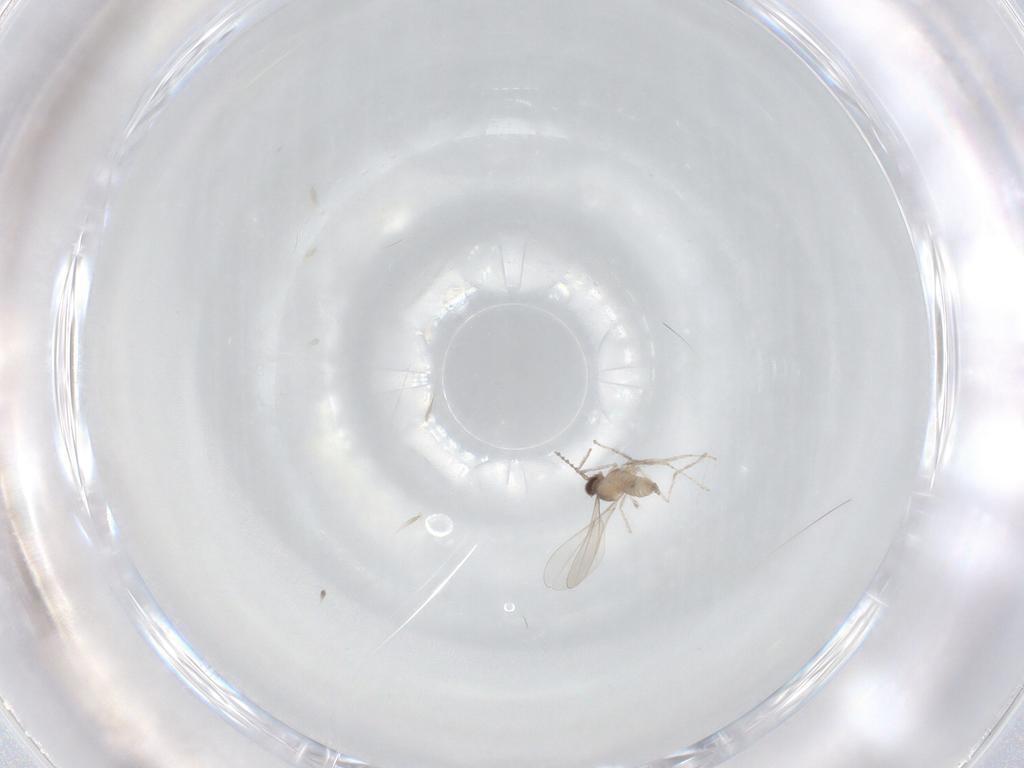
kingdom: Animalia
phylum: Arthropoda
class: Insecta
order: Diptera
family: Cecidomyiidae
